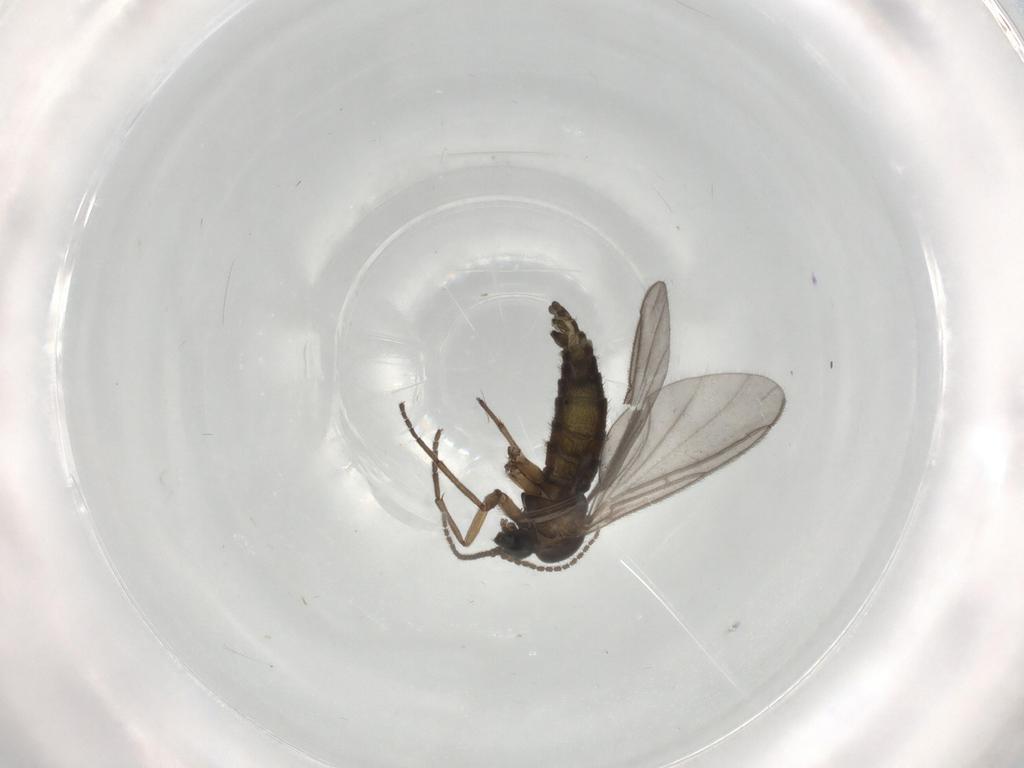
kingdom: Animalia
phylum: Arthropoda
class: Insecta
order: Diptera
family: Sciaridae
